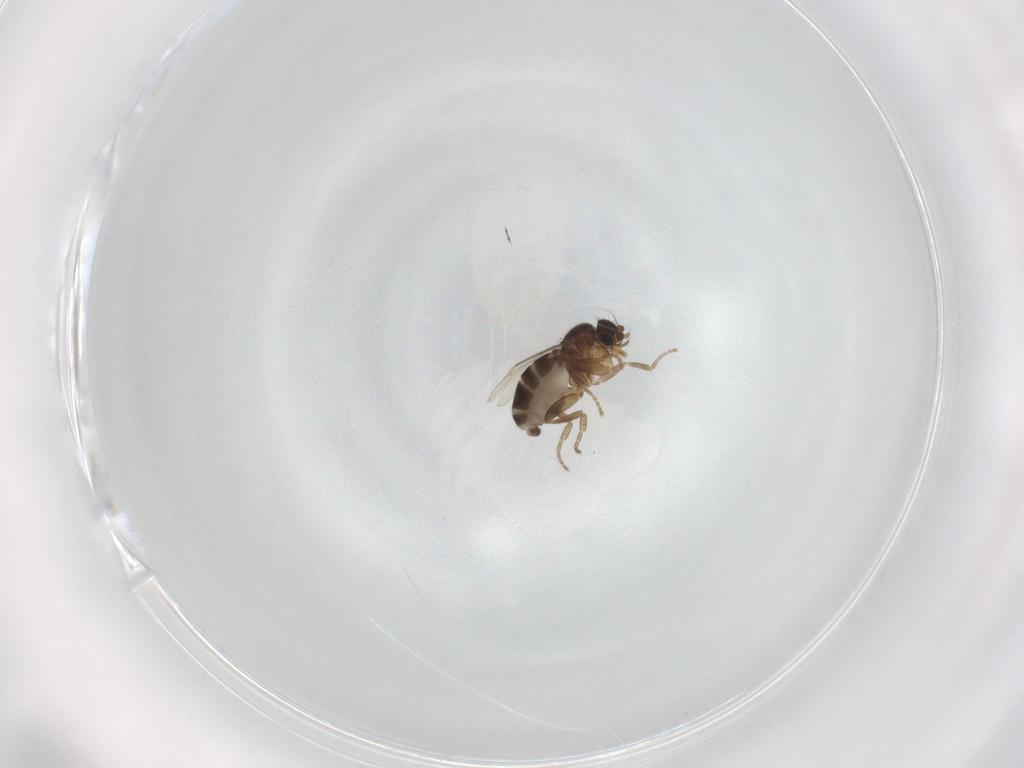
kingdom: Animalia
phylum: Arthropoda
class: Insecta
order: Diptera
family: Phoridae
